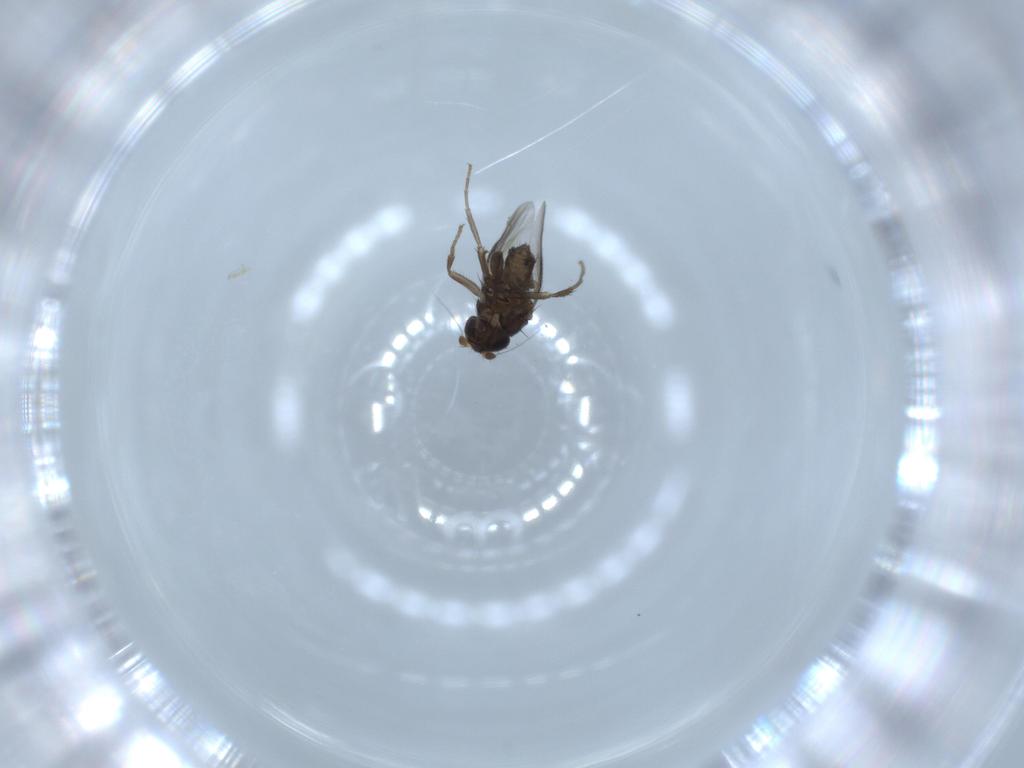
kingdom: Animalia
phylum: Arthropoda
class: Insecta
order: Diptera
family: Sphaeroceridae
